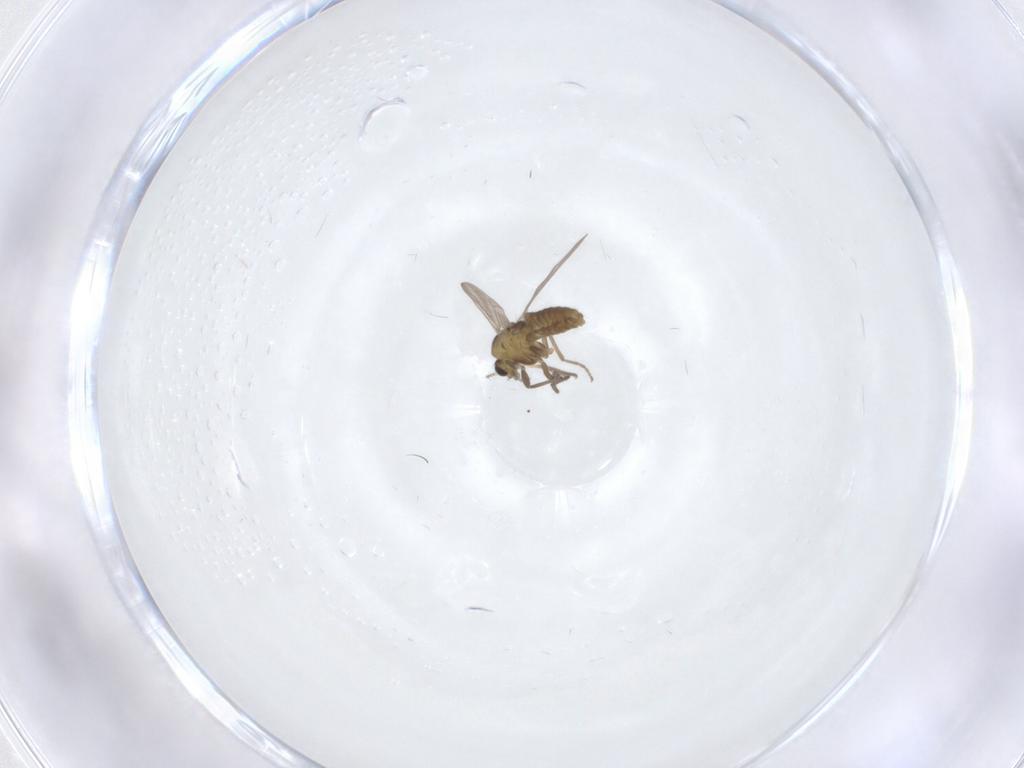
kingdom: Animalia
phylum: Arthropoda
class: Insecta
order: Diptera
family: Chironomidae
